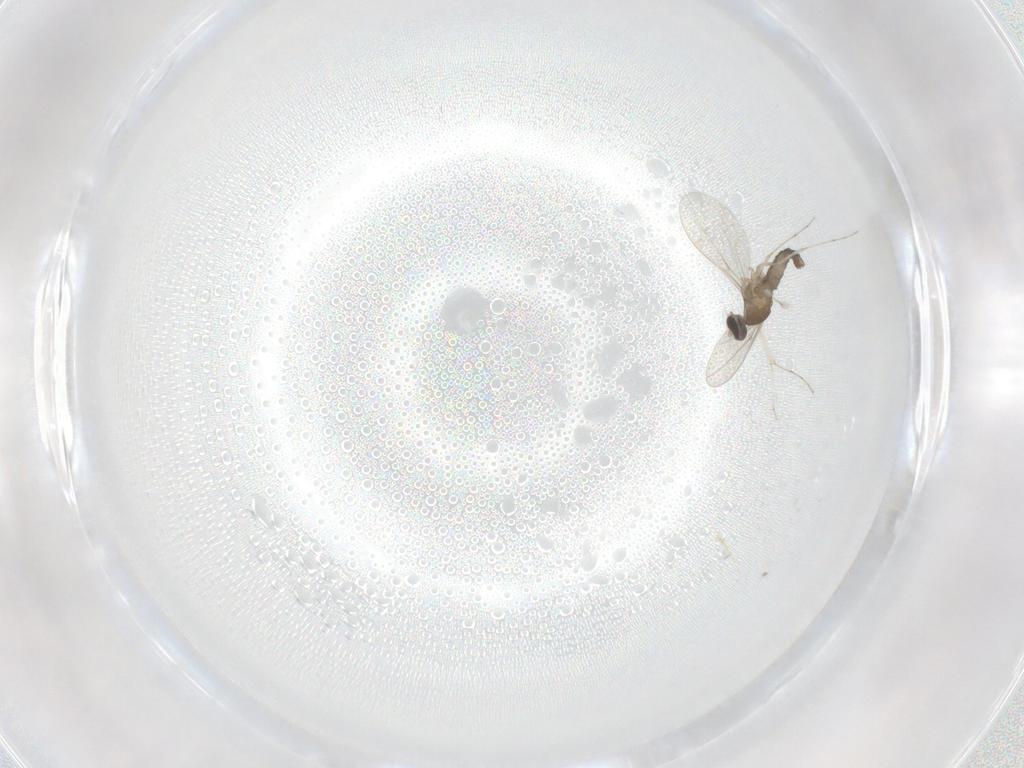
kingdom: Animalia
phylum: Arthropoda
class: Insecta
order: Diptera
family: Cecidomyiidae
